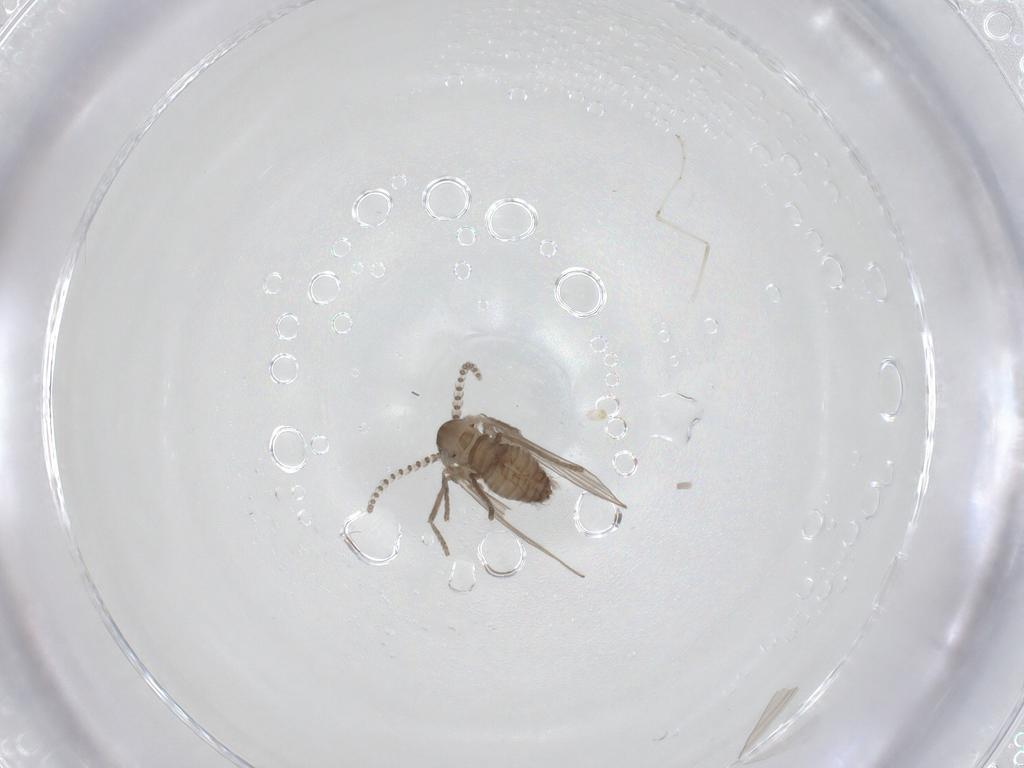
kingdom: Animalia
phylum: Arthropoda
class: Insecta
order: Diptera
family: Cecidomyiidae
